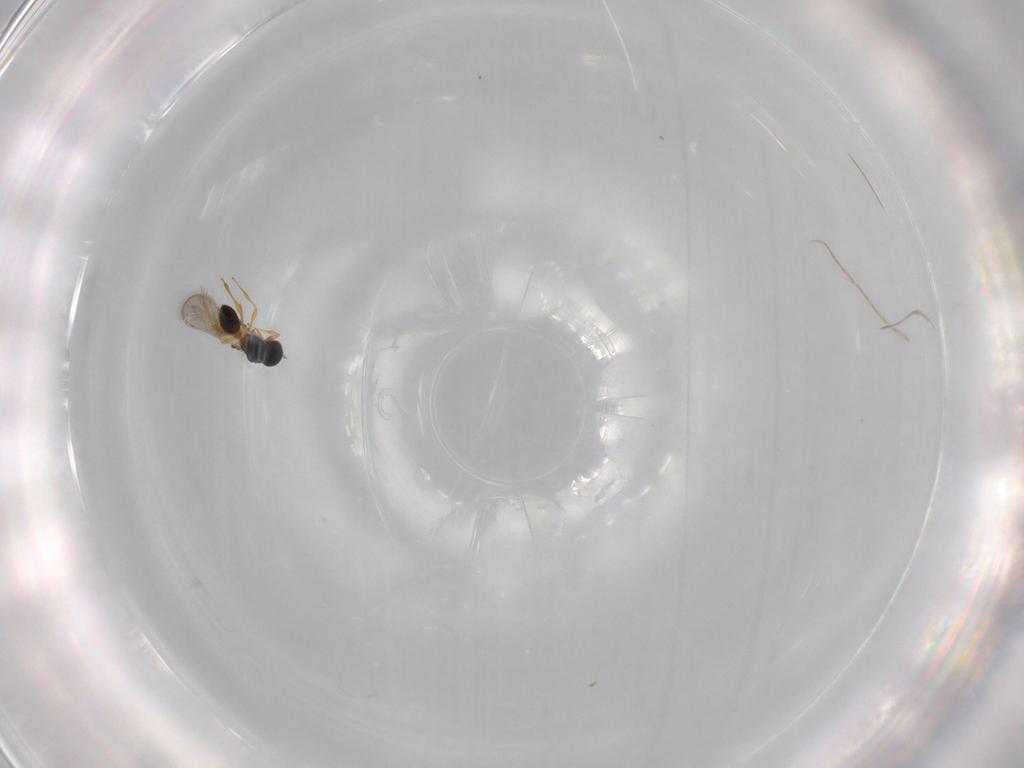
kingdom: Animalia
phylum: Arthropoda
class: Insecta
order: Hymenoptera
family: Platygastridae
